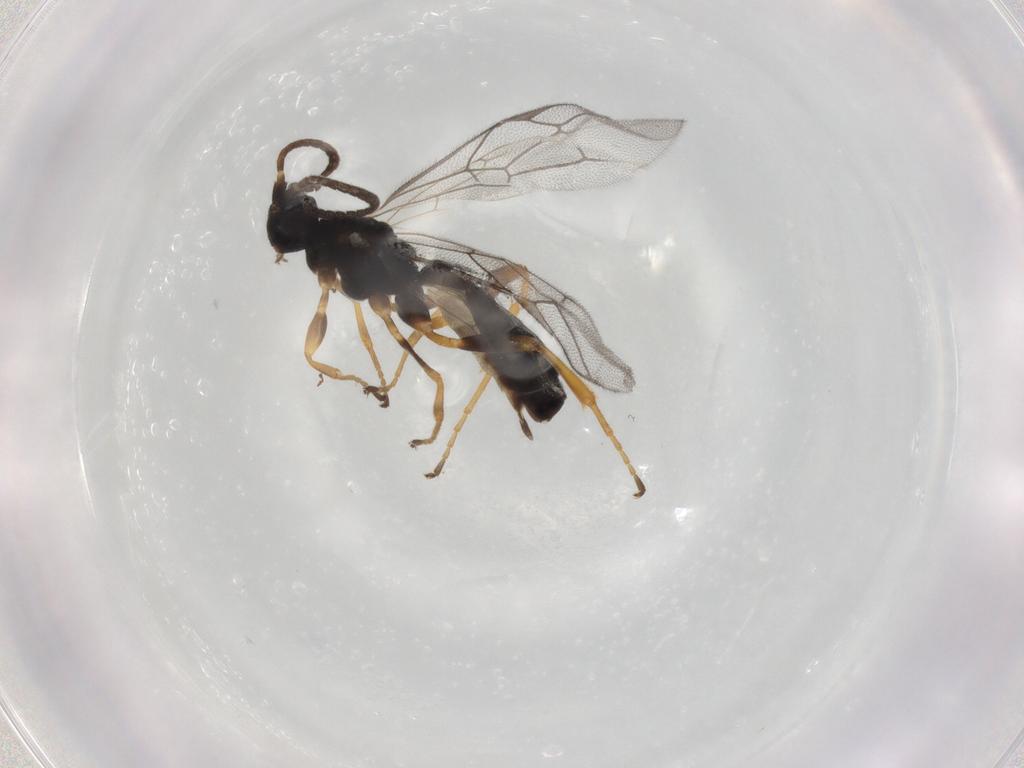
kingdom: Animalia
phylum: Arthropoda
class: Insecta
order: Hymenoptera
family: Ichneumonidae
